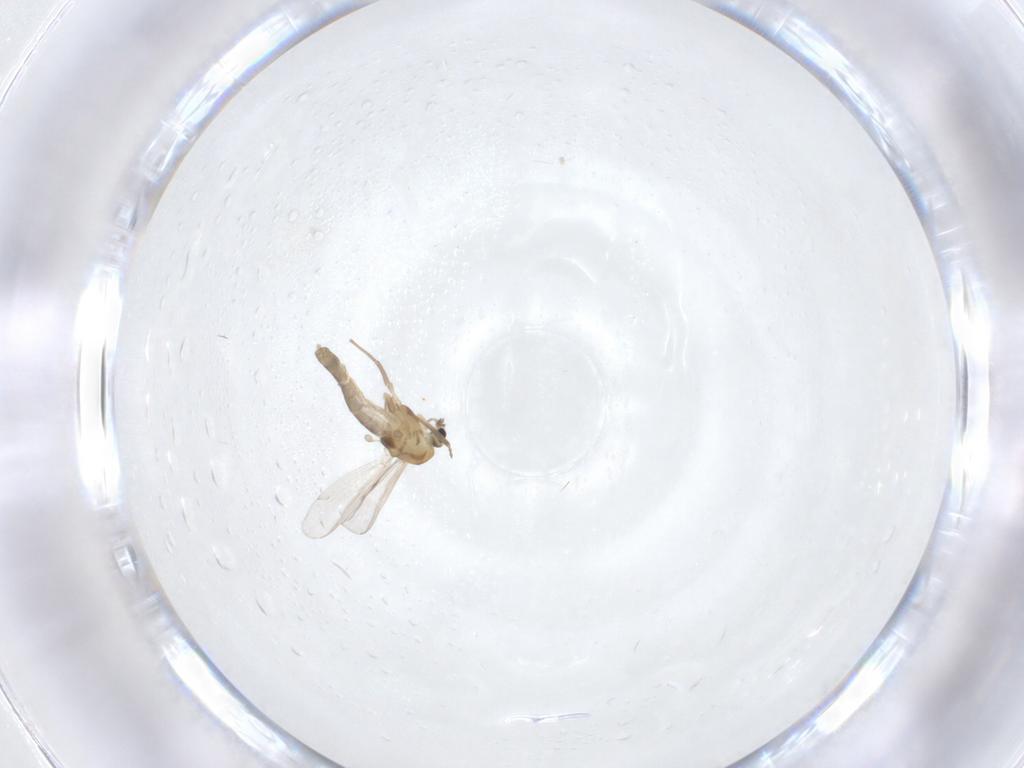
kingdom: Animalia
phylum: Arthropoda
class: Insecta
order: Diptera
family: Chironomidae
